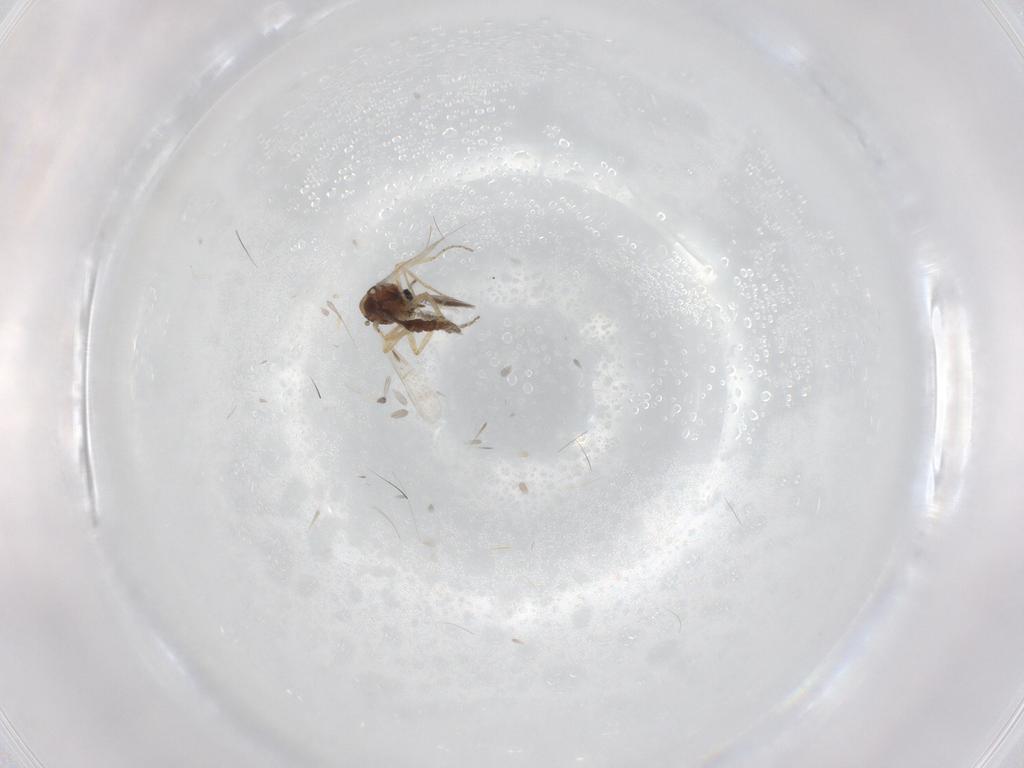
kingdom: Animalia
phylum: Arthropoda
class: Insecta
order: Diptera
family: Ceratopogonidae
